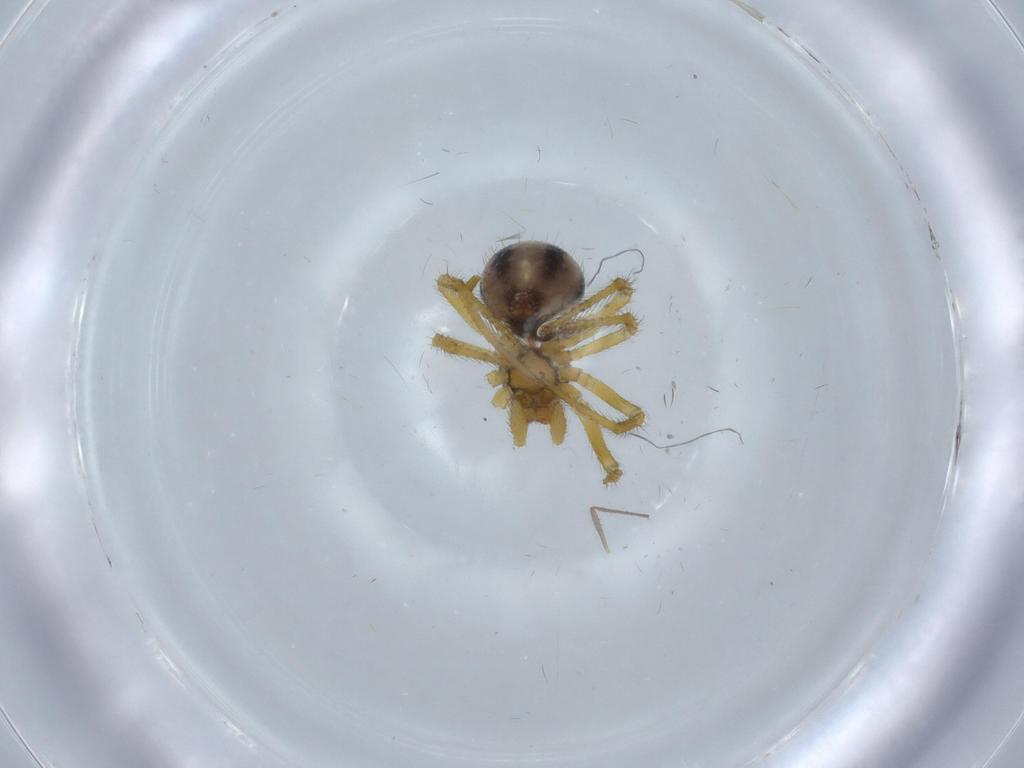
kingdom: Animalia
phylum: Arthropoda
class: Arachnida
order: Araneae
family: Theridiidae
